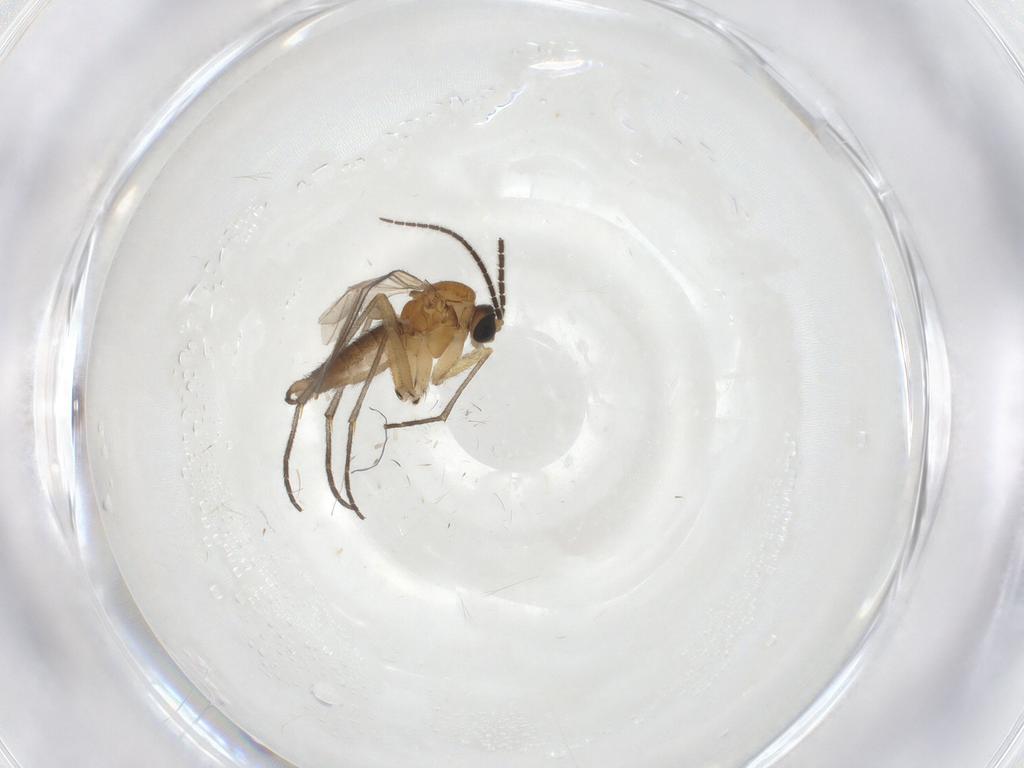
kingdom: Animalia
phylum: Arthropoda
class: Insecta
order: Diptera
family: Sciaridae
